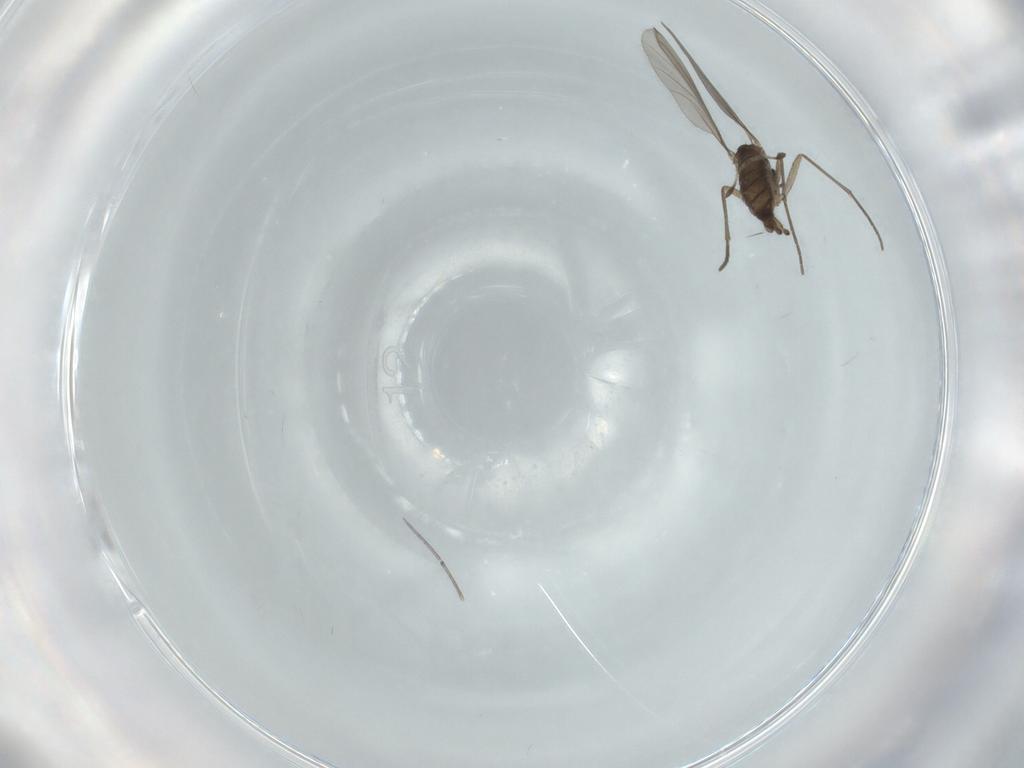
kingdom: Animalia
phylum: Arthropoda
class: Insecta
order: Diptera
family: Sciaridae
